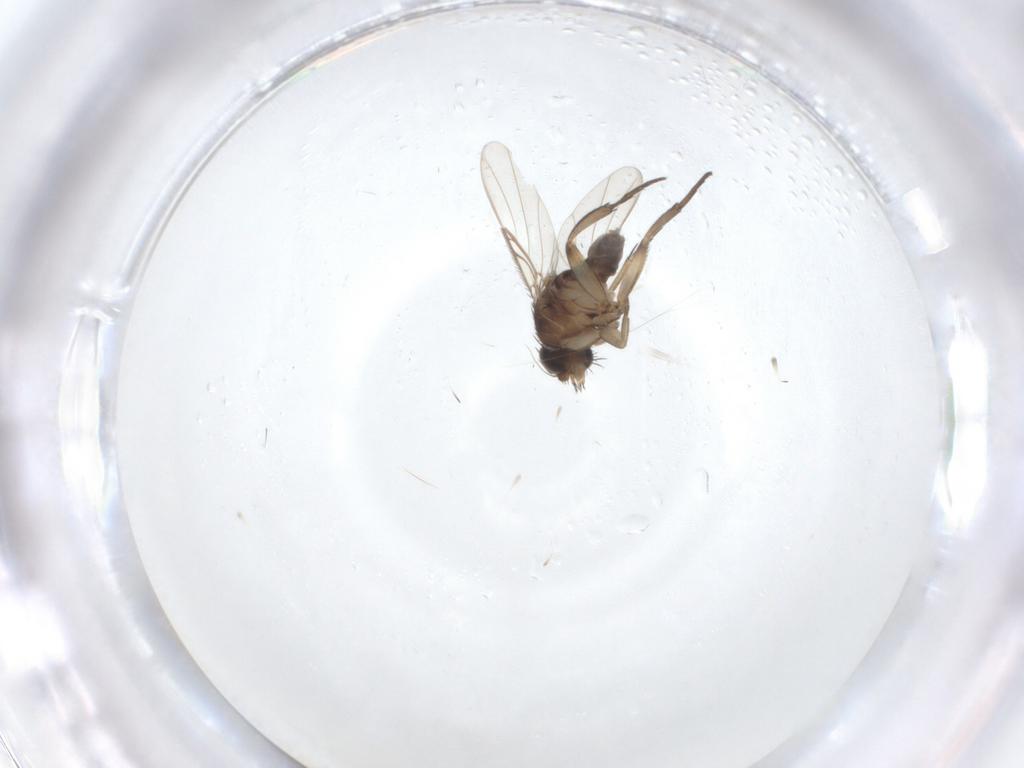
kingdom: Animalia
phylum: Arthropoda
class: Insecta
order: Diptera
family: Phoridae
